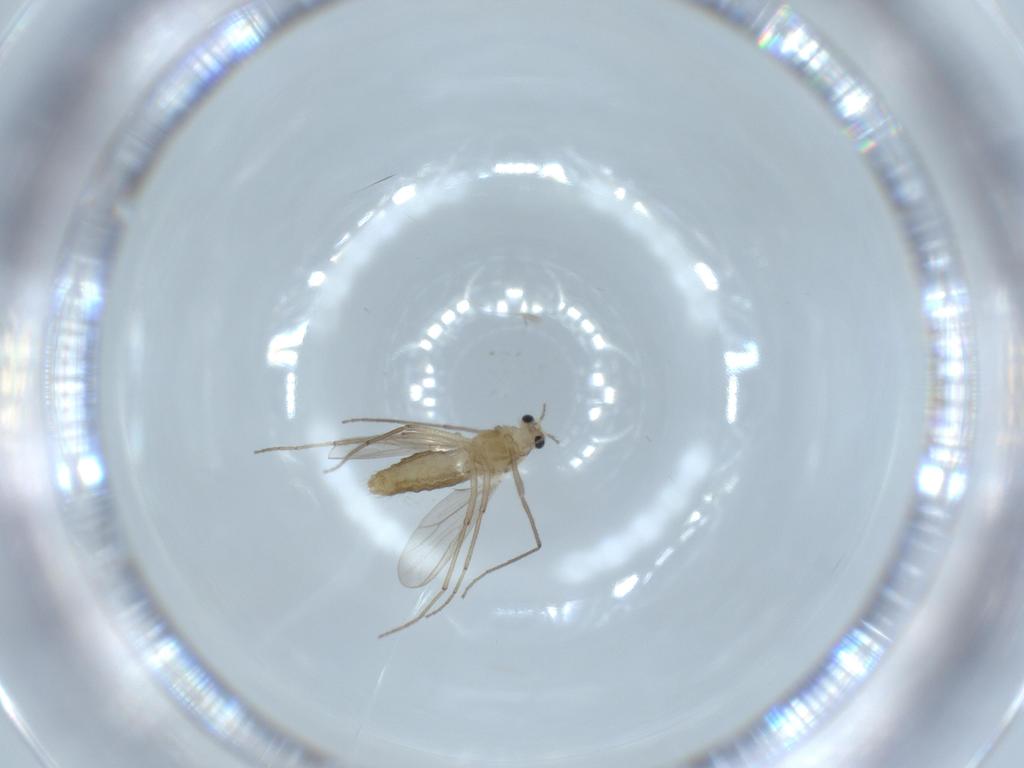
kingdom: Animalia
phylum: Arthropoda
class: Insecta
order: Diptera
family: Chironomidae
